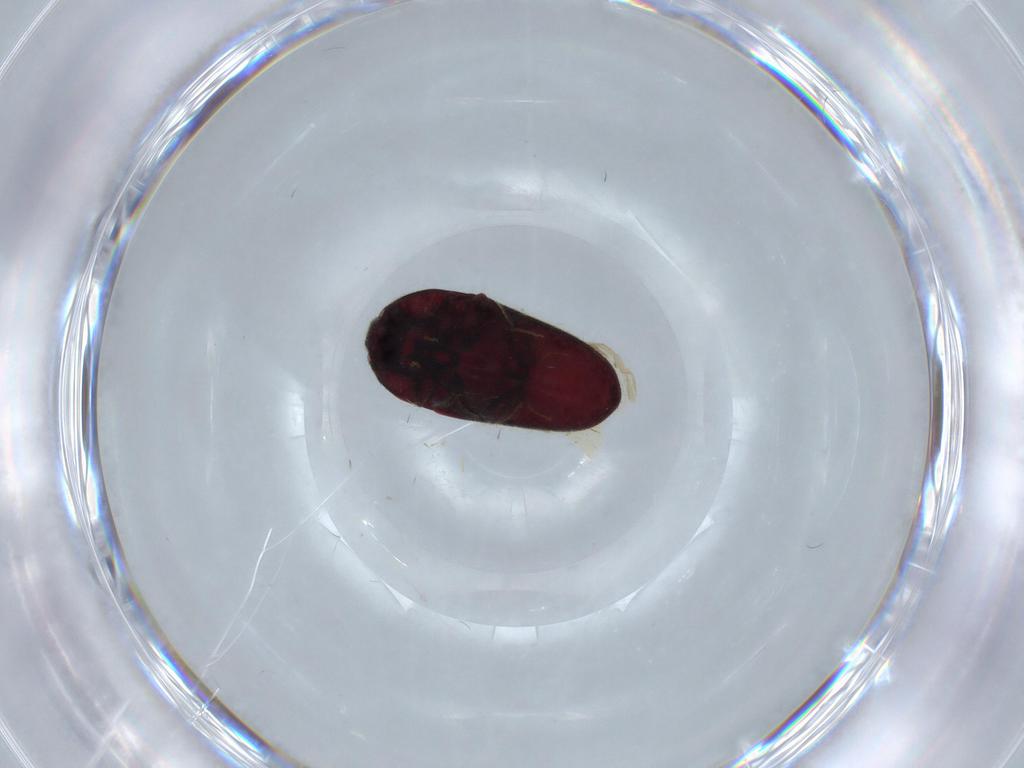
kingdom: Animalia
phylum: Arthropoda
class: Insecta
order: Coleoptera
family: Throscidae
